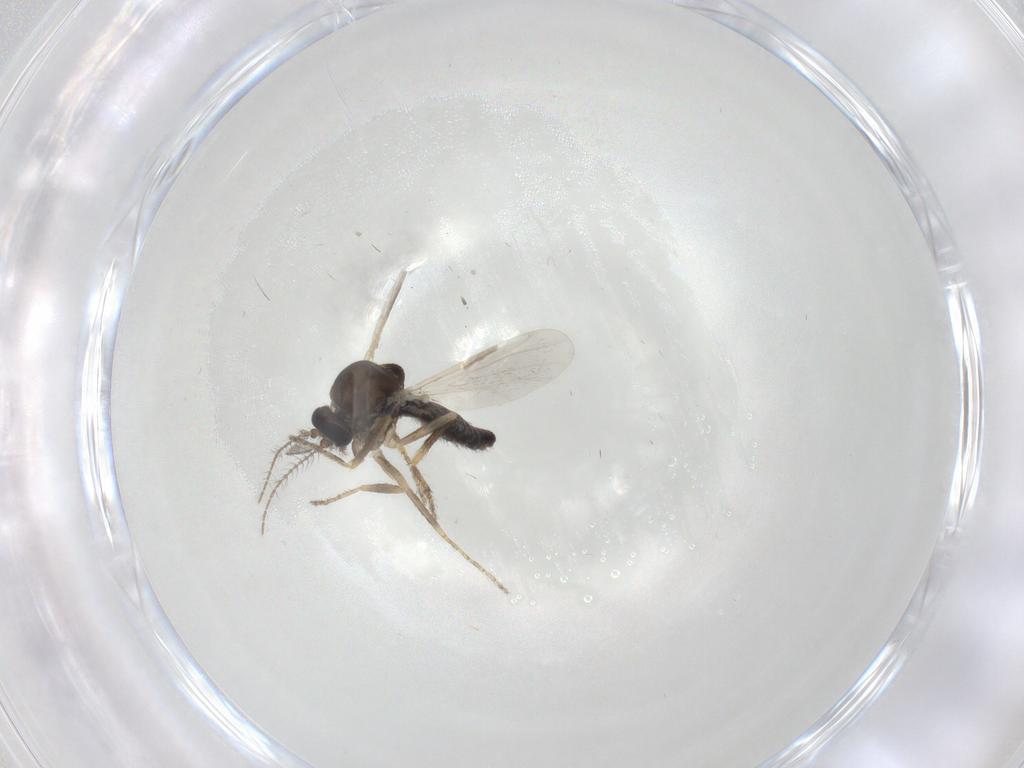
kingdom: Animalia
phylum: Arthropoda
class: Insecta
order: Diptera
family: Ceratopogonidae
